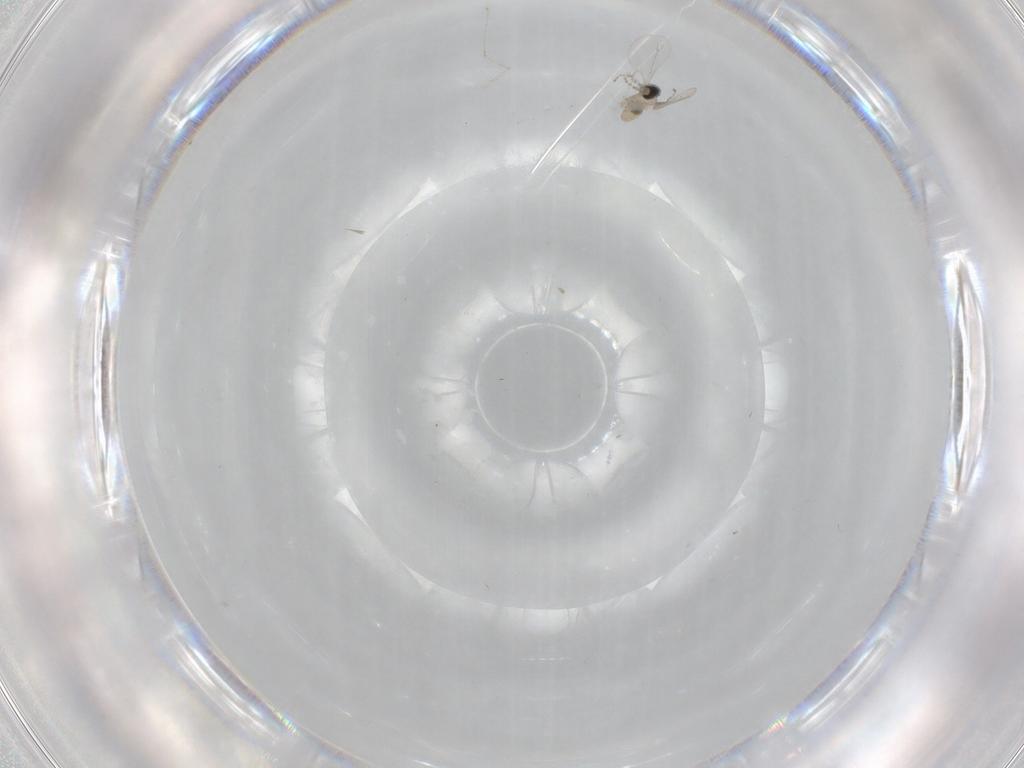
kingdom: Animalia
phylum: Arthropoda
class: Insecta
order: Diptera
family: Cecidomyiidae
